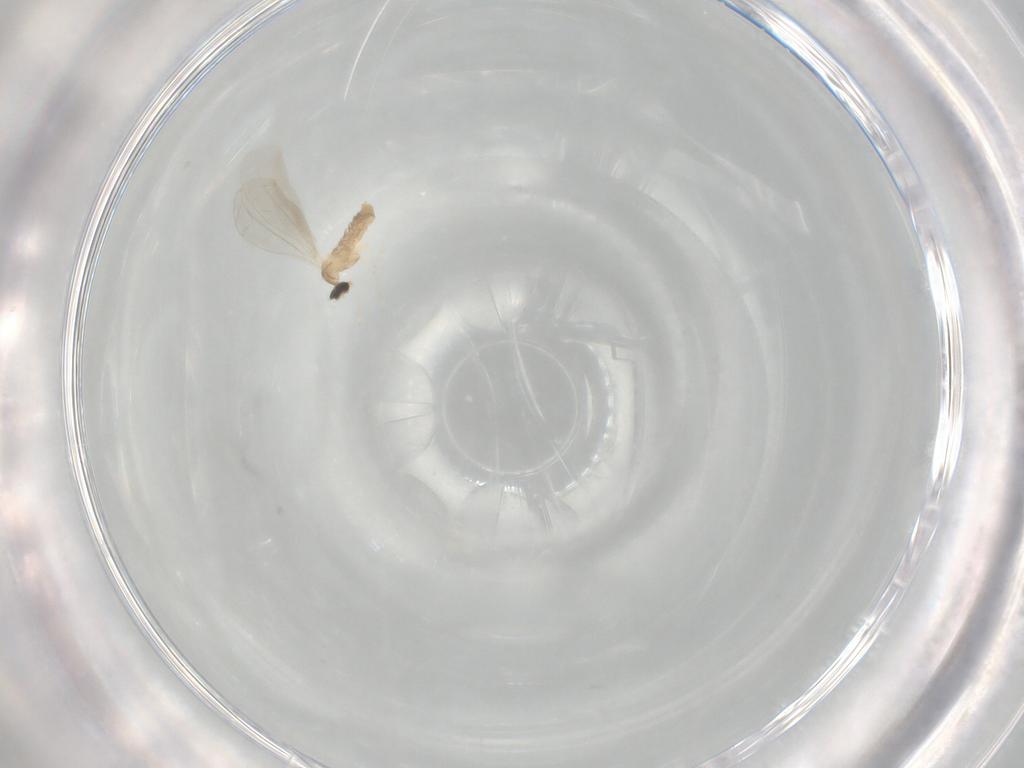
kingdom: Animalia
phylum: Arthropoda
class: Insecta
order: Diptera
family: Cecidomyiidae
